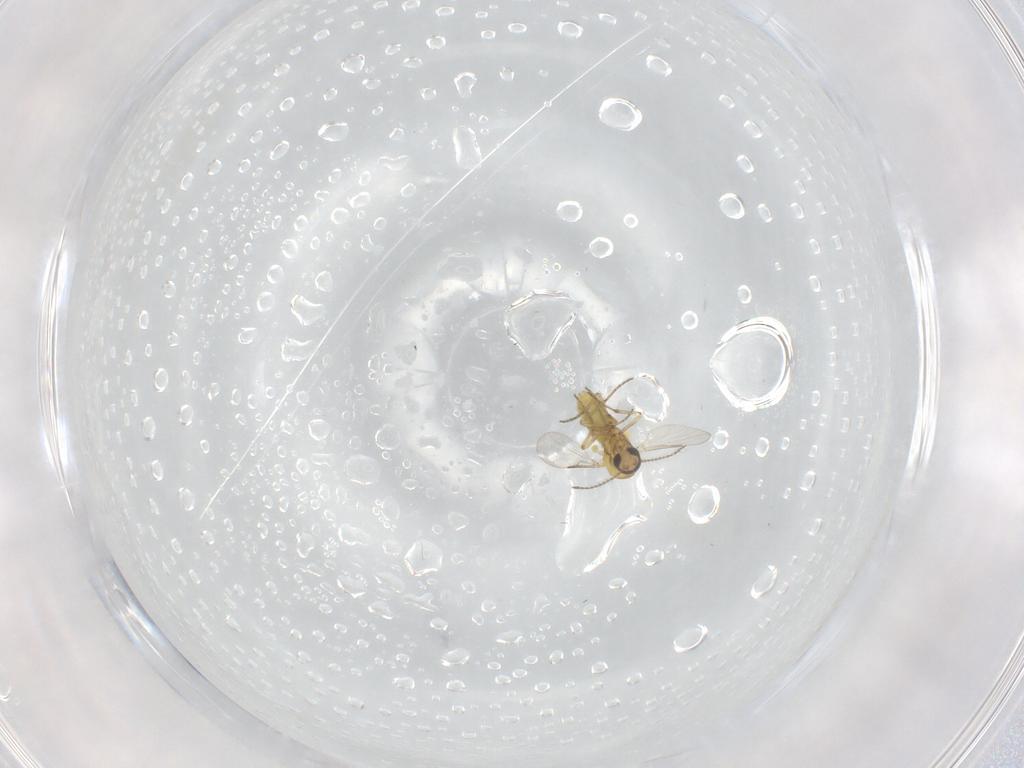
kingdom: Animalia
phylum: Arthropoda
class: Insecta
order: Diptera
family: Ceratopogonidae
